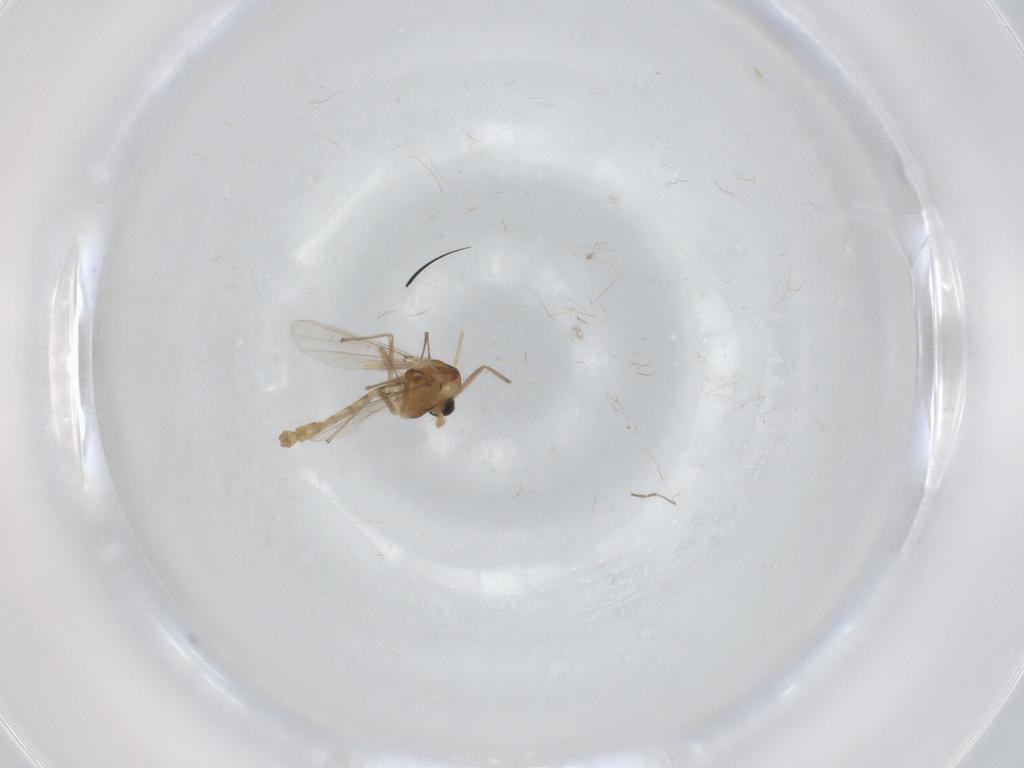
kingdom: Animalia
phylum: Arthropoda
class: Insecta
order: Diptera
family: Chironomidae
